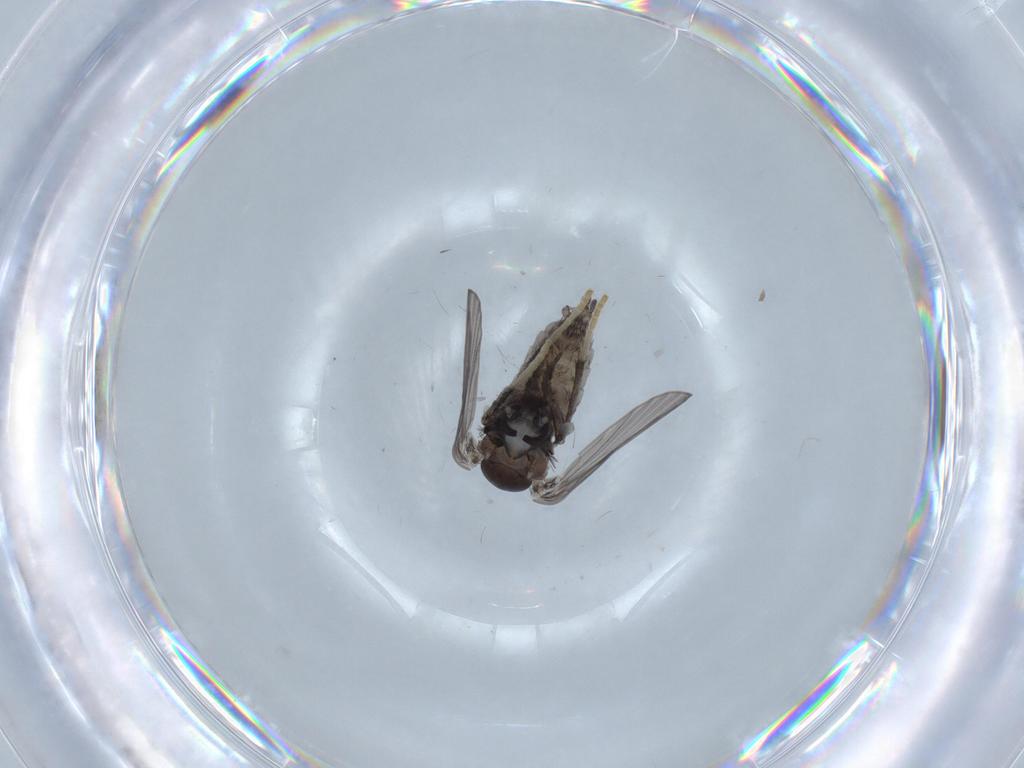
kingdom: Animalia
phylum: Arthropoda
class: Insecta
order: Diptera
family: Psychodidae
